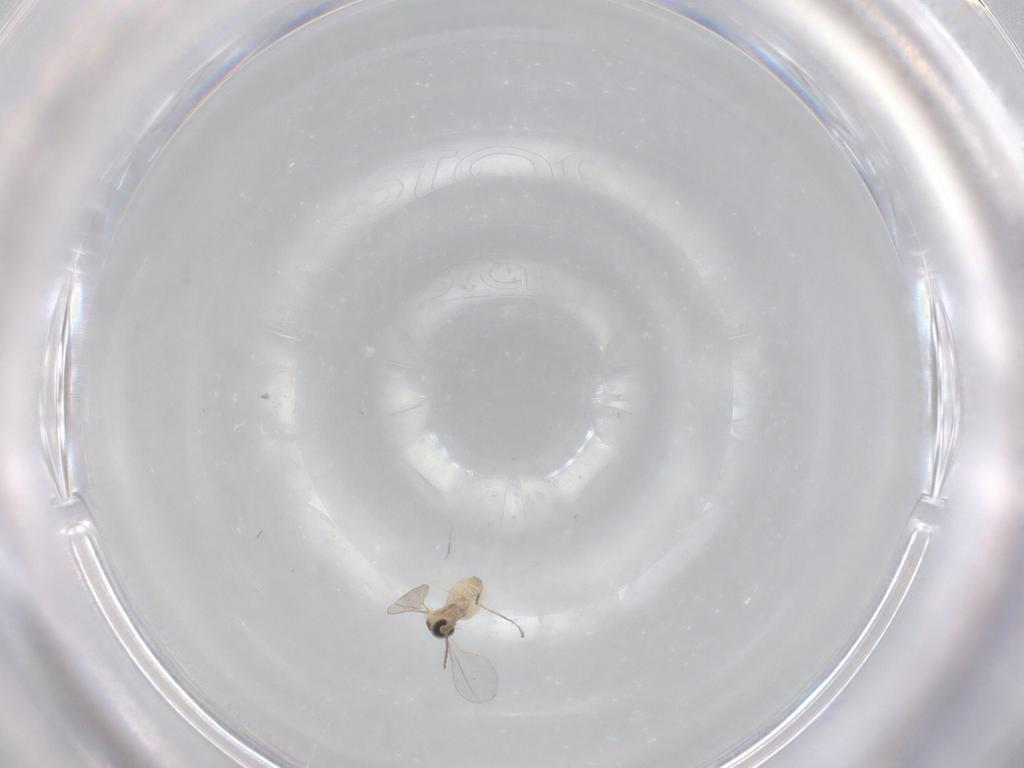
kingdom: Animalia
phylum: Arthropoda
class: Insecta
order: Diptera
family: Cecidomyiidae
